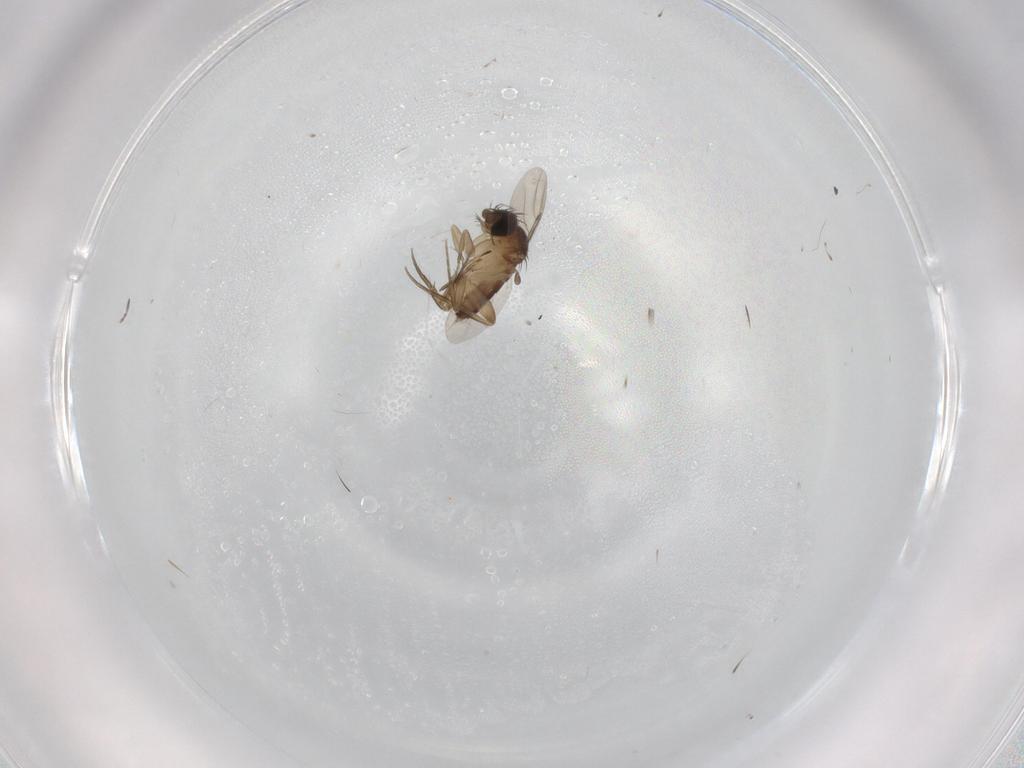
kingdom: Animalia
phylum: Arthropoda
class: Insecta
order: Diptera
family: Phoridae
